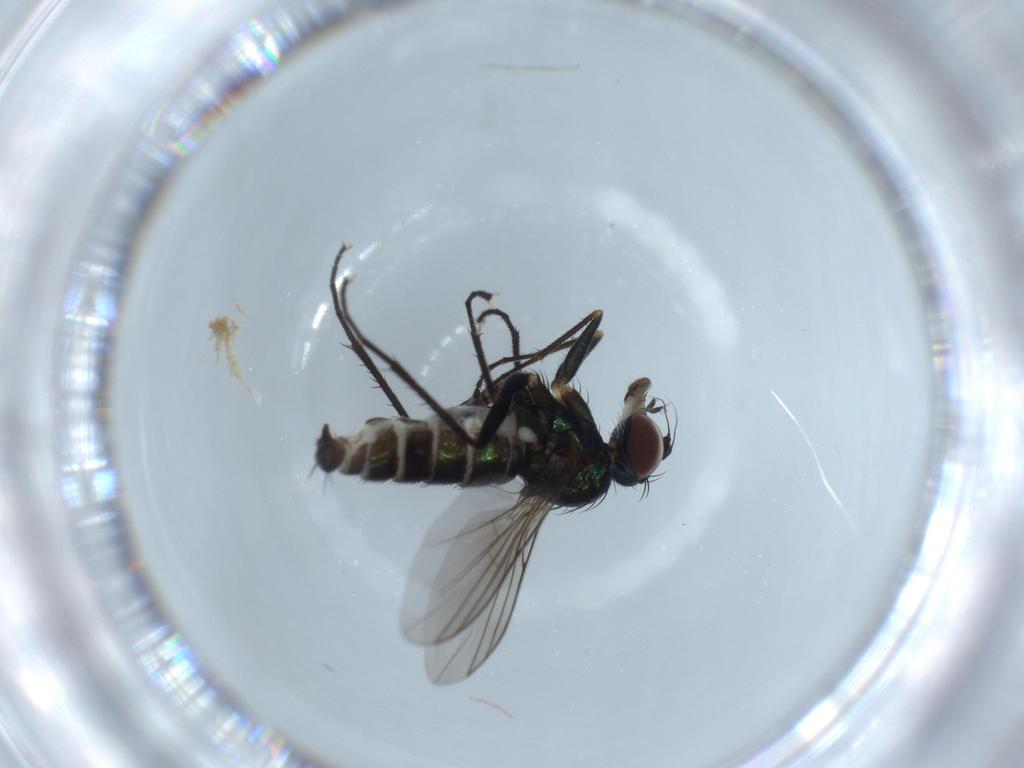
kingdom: Animalia
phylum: Arthropoda
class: Insecta
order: Diptera
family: Dolichopodidae
